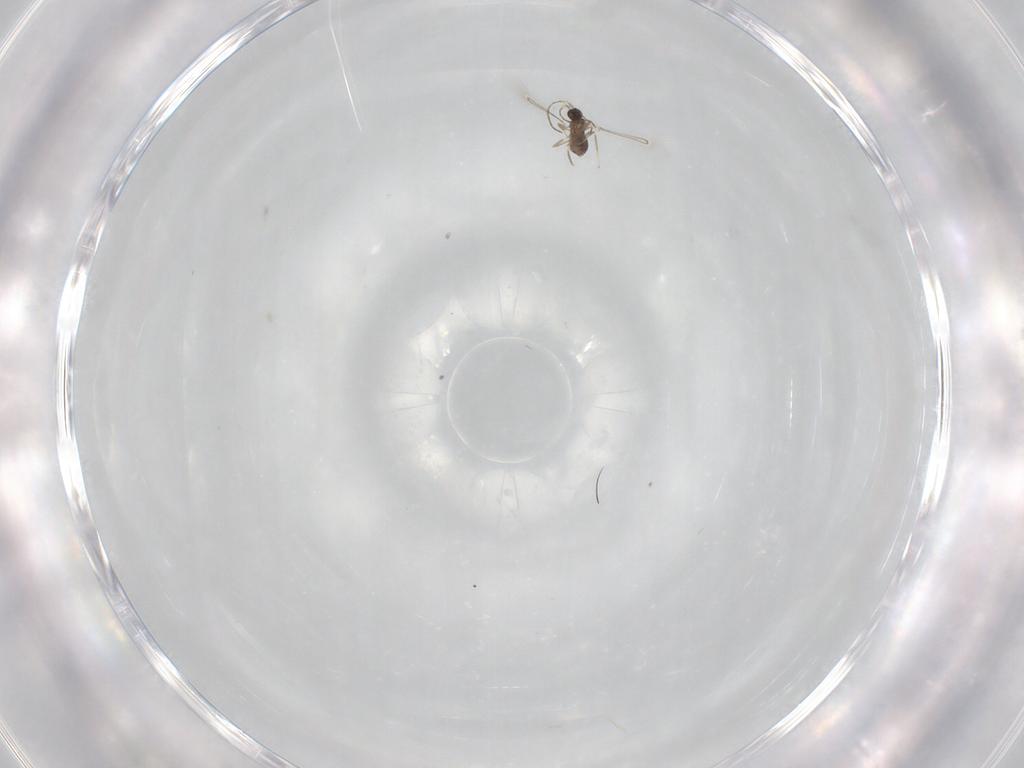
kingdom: Animalia
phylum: Arthropoda
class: Insecta
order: Hymenoptera
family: Mymaridae
